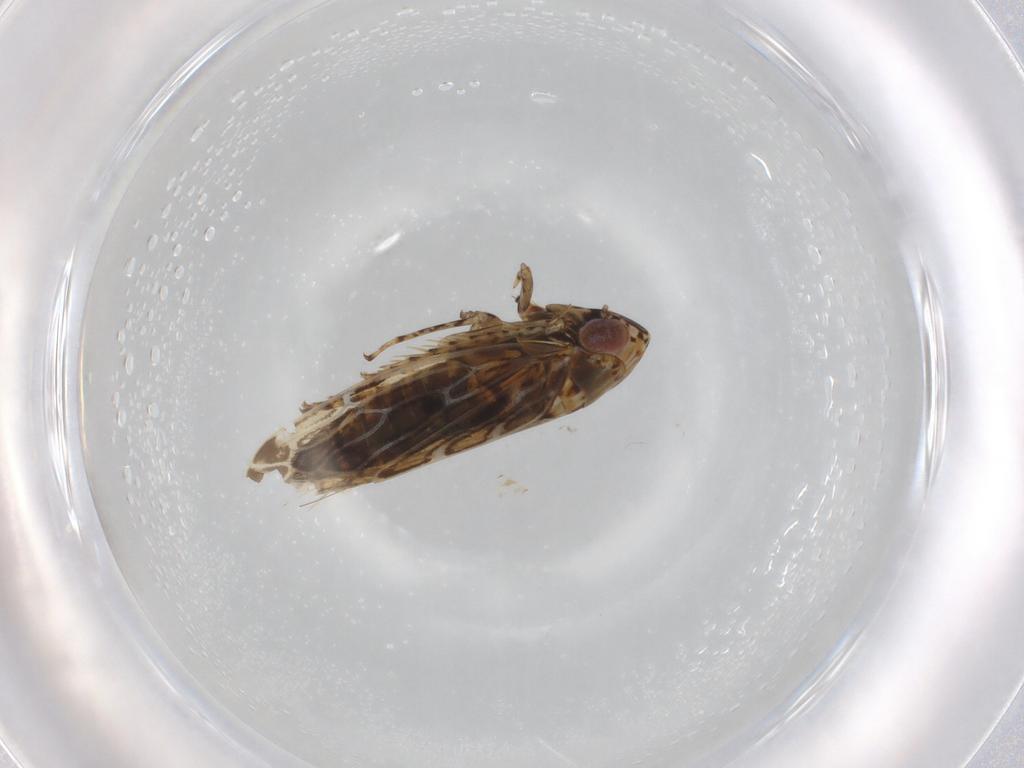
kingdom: Animalia
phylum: Arthropoda
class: Insecta
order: Hemiptera
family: Cicadellidae
